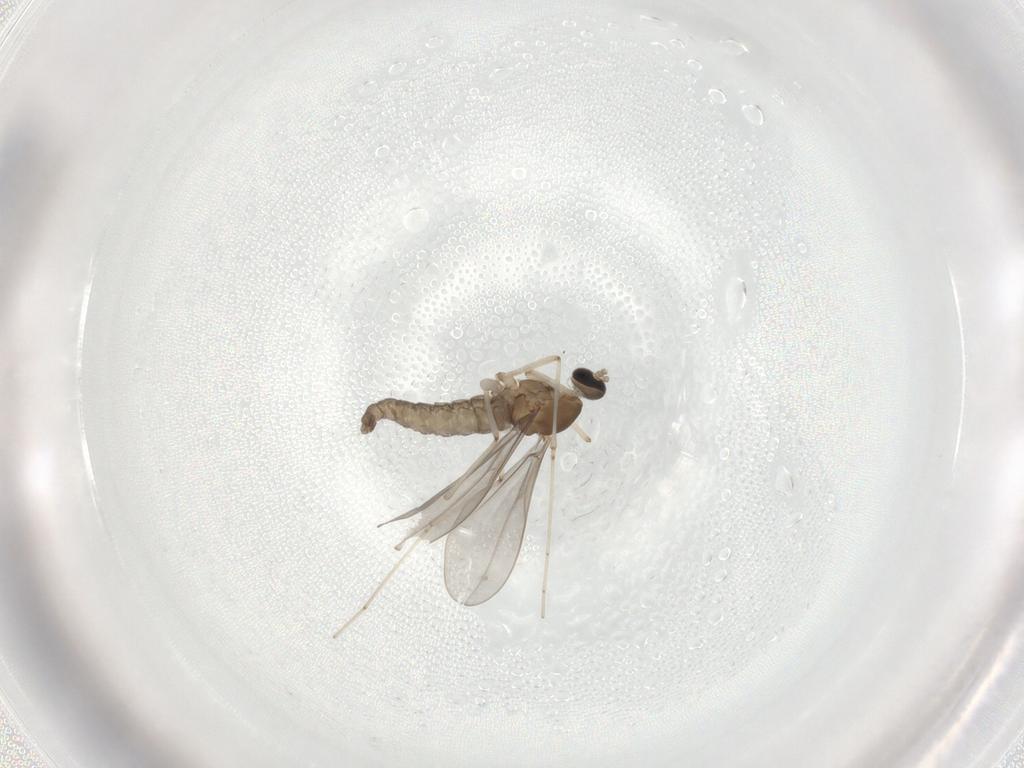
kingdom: Animalia
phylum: Arthropoda
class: Insecta
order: Diptera
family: Cecidomyiidae
